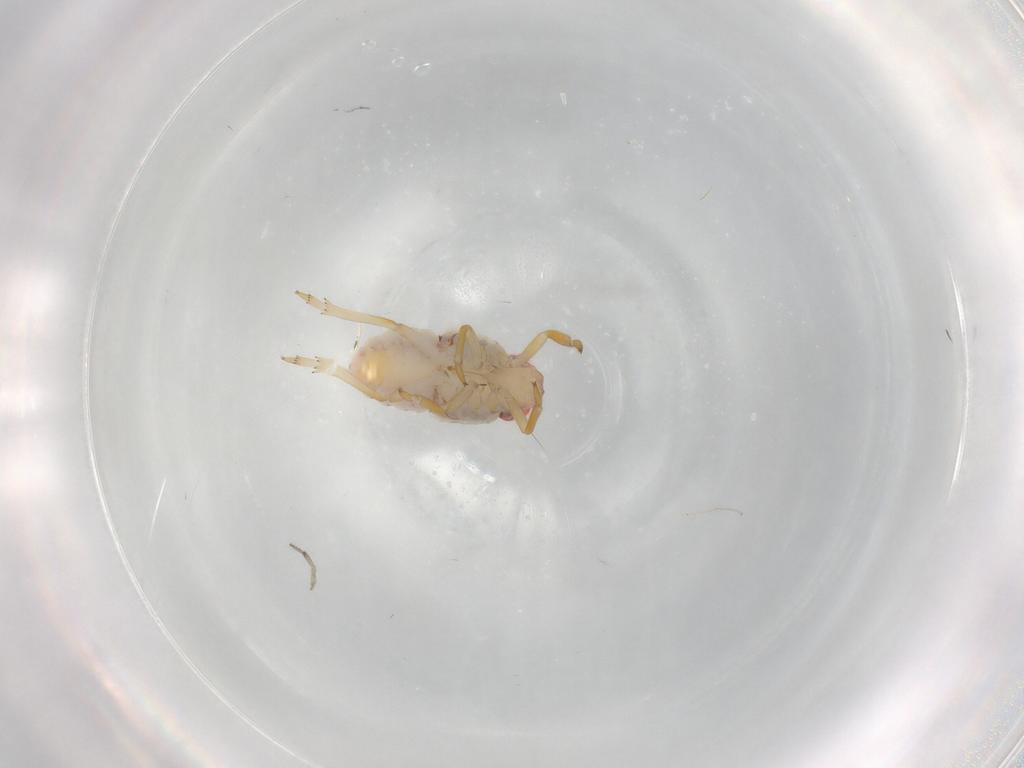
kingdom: Animalia
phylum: Arthropoda
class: Insecta
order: Hemiptera
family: Issidae
